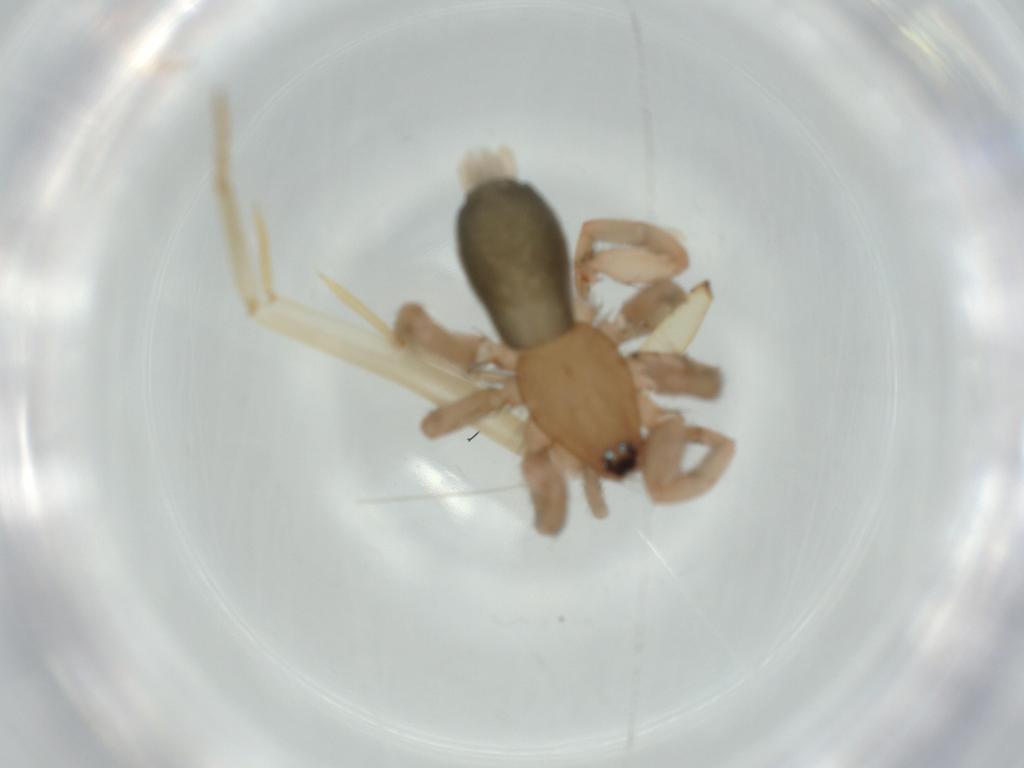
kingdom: Animalia
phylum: Arthropoda
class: Arachnida
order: Araneae
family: Gnaphosidae
